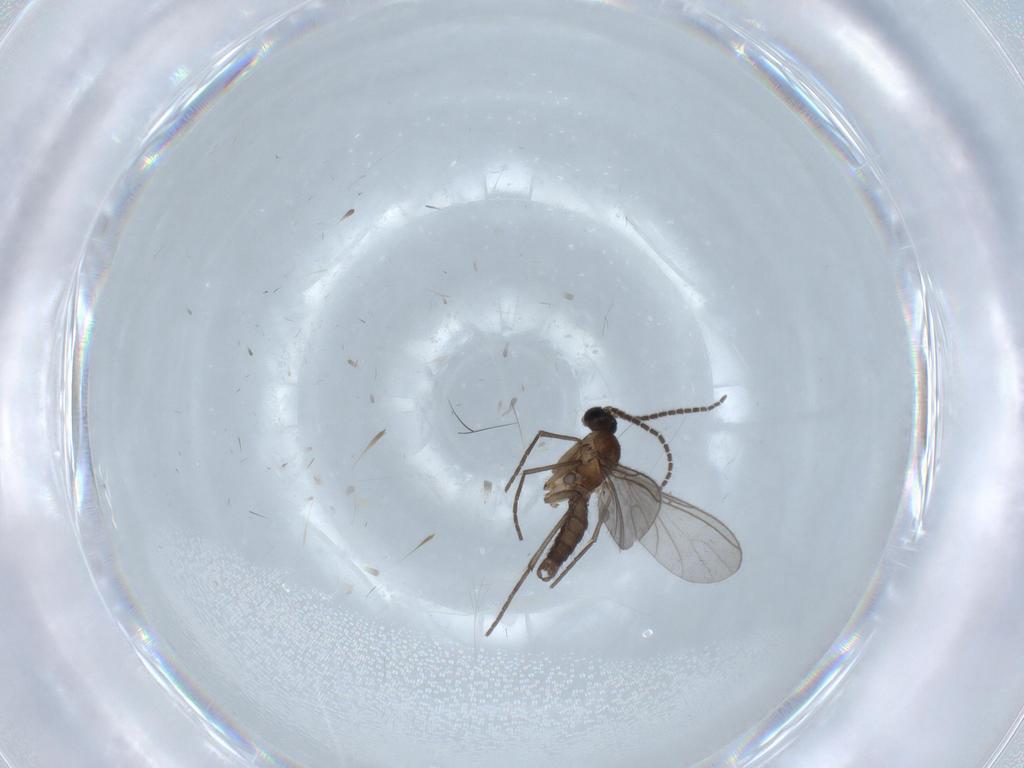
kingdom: Animalia
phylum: Arthropoda
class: Insecta
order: Diptera
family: Sciaridae
